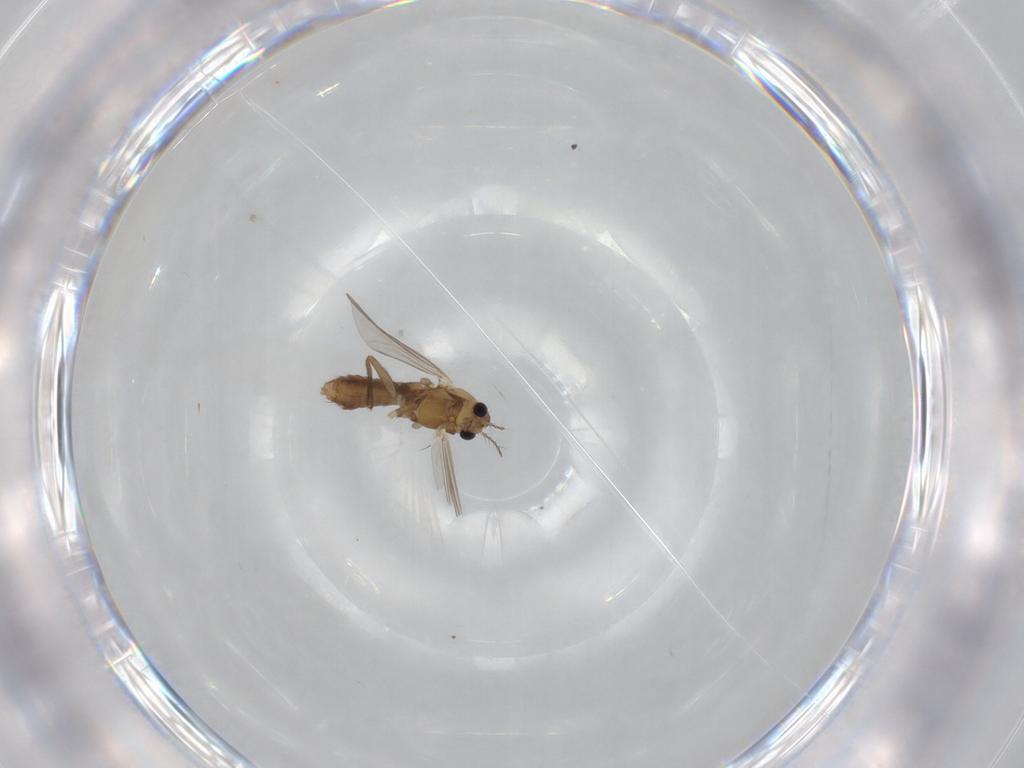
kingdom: Animalia
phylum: Arthropoda
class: Insecta
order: Diptera
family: Chironomidae
